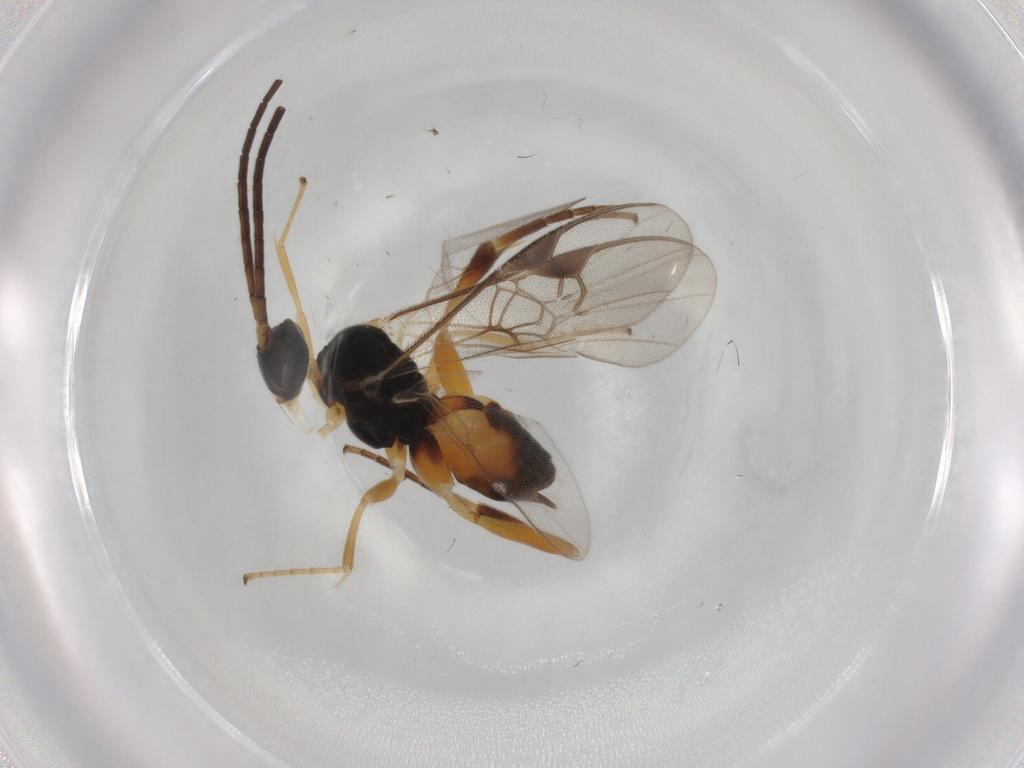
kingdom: Animalia
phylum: Arthropoda
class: Insecta
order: Hymenoptera
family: Braconidae
